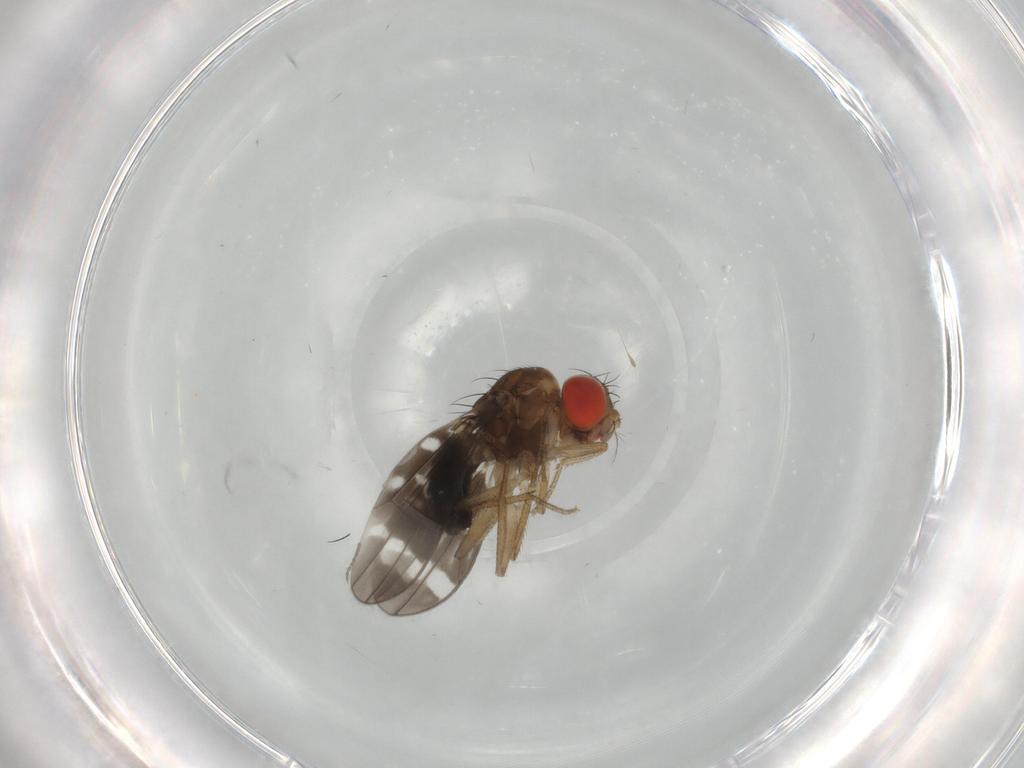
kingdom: Animalia
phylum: Arthropoda
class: Insecta
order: Diptera
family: Drosophilidae
